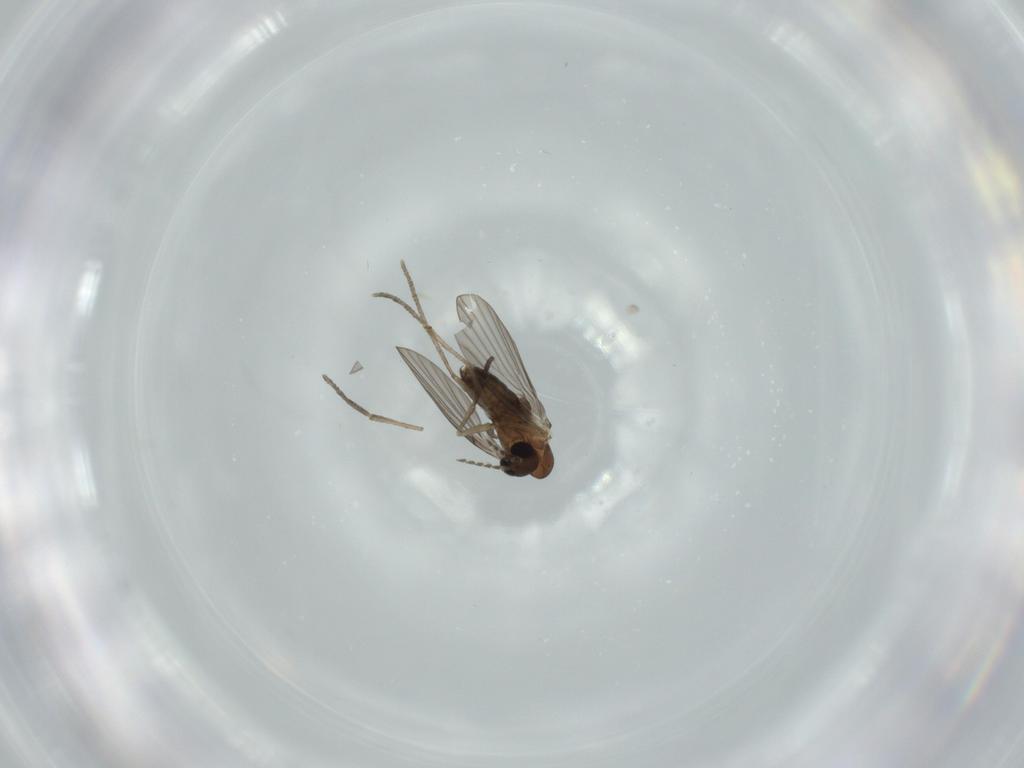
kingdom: Animalia
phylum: Arthropoda
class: Insecta
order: Diptera
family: Psychodidae
